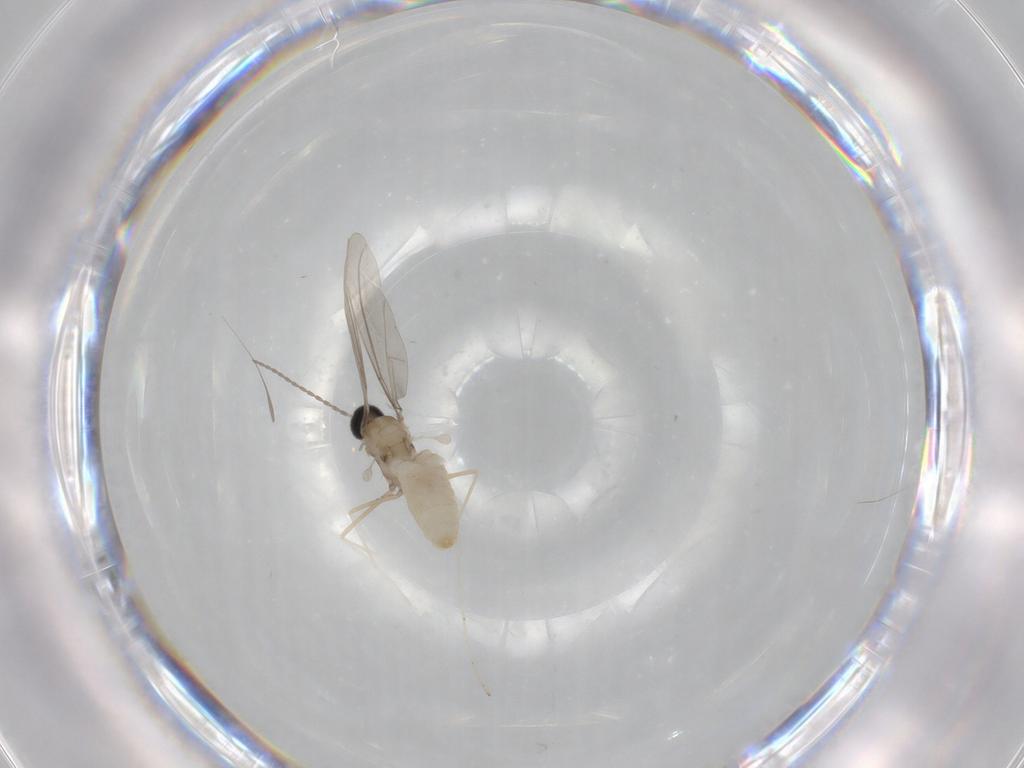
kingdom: Animalia
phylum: Arthropoda
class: Insecta
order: Diptera
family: Cecidomyiidae
